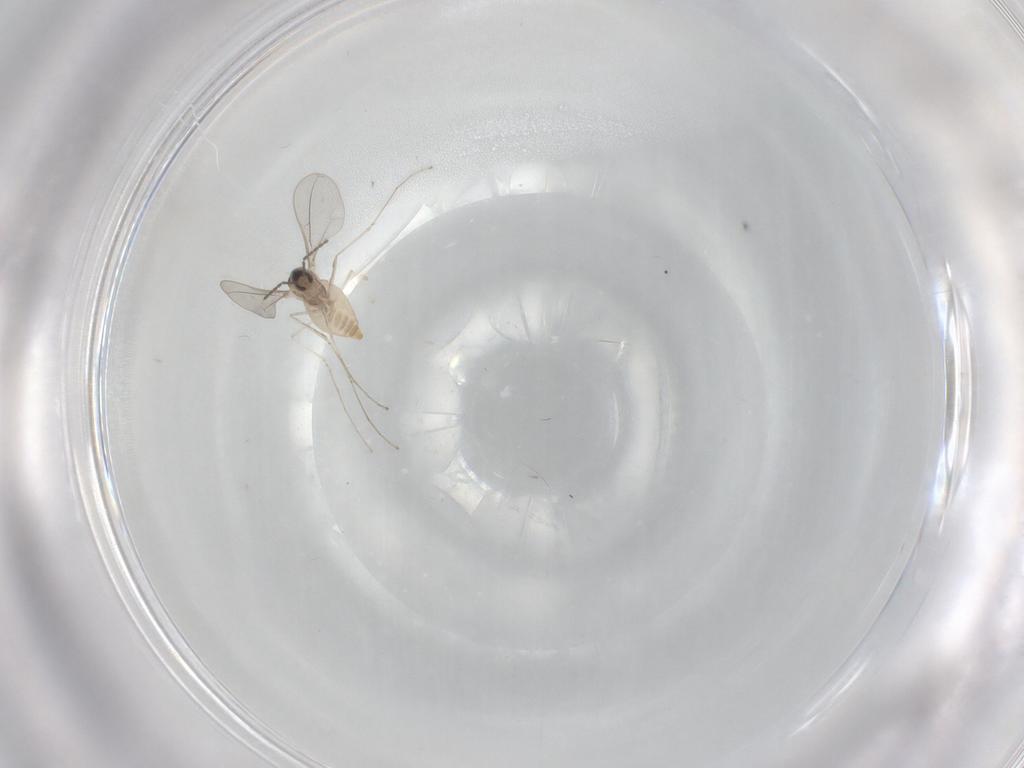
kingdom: Animalia
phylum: Arthropoda
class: Insecta
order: Diptera
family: Cecidomyiidae
